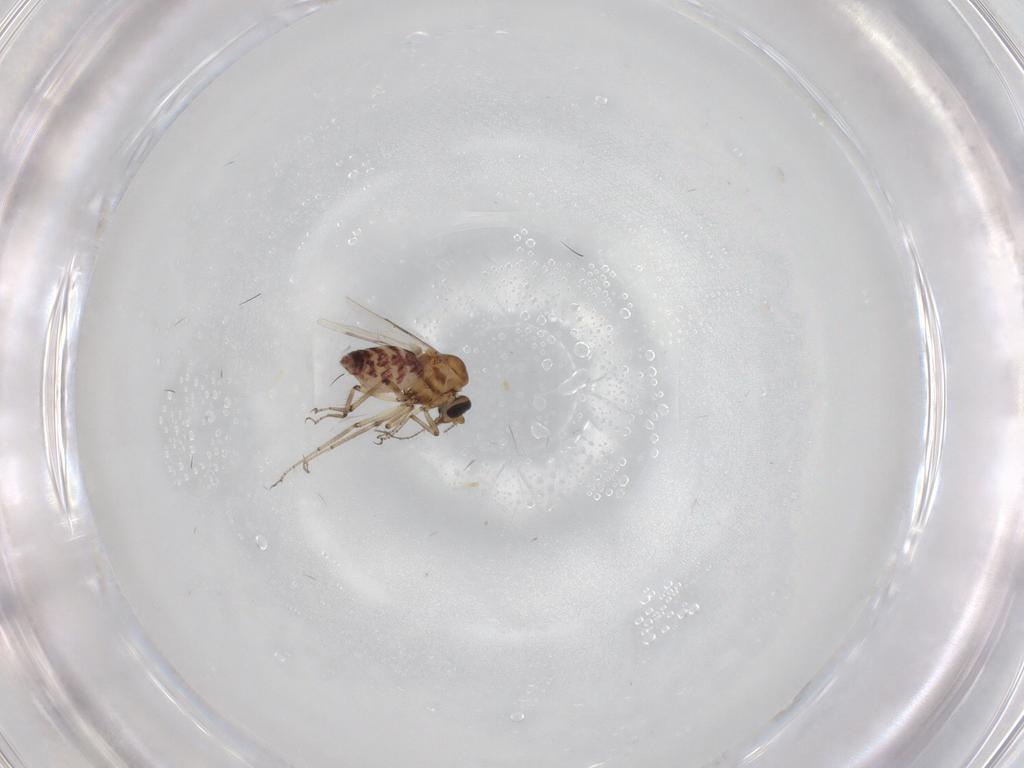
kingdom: Animalia
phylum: Arthropoda
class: Insecta
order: Diptera
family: Ceratopogonidae
